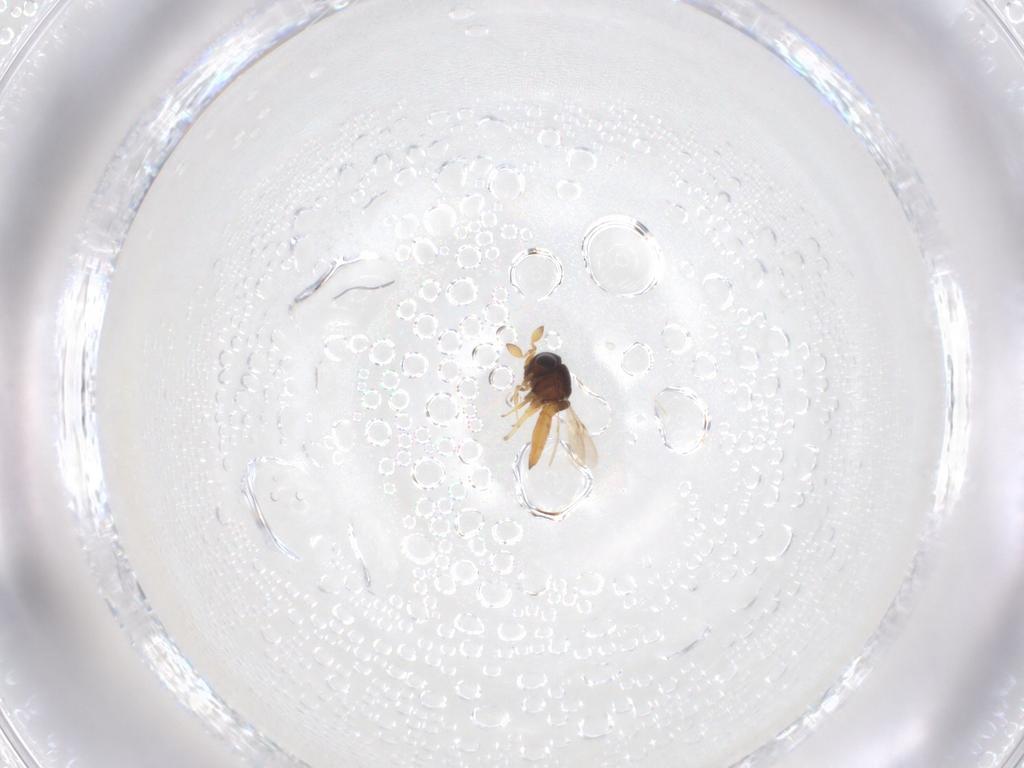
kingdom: Animalia
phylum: Arthropoda
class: Insecta
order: Hymenoptera
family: Scelionidae
